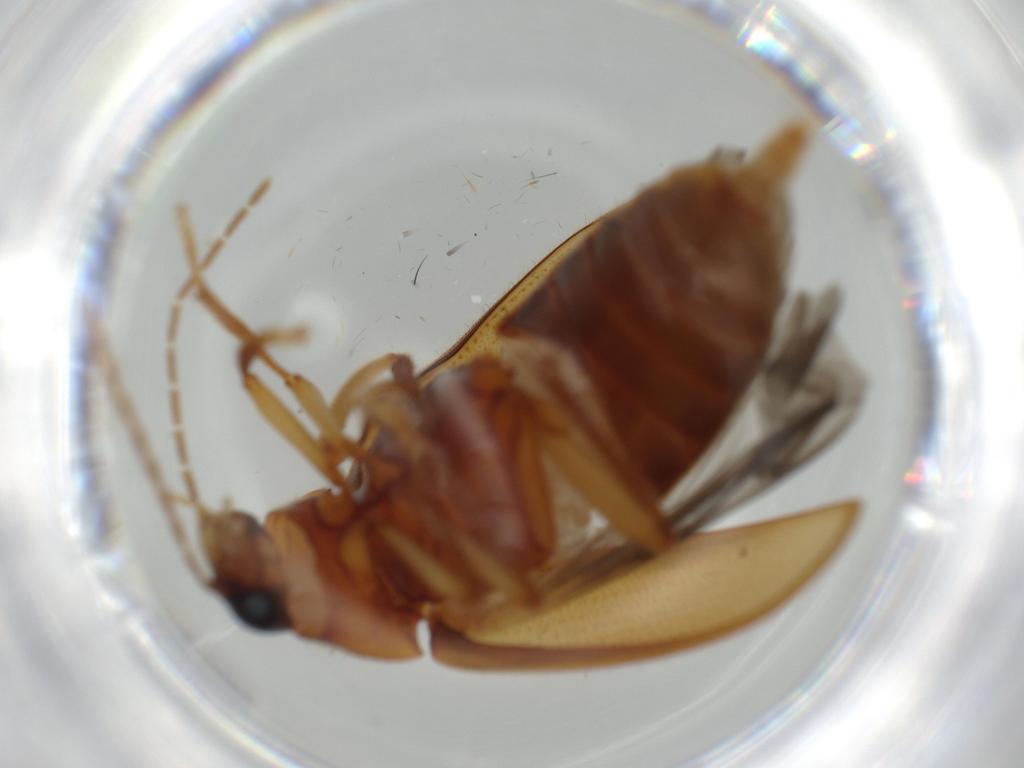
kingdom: Animalia
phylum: Arthropoda
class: Insecta
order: Coleoptera
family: Ptilodactylidae
